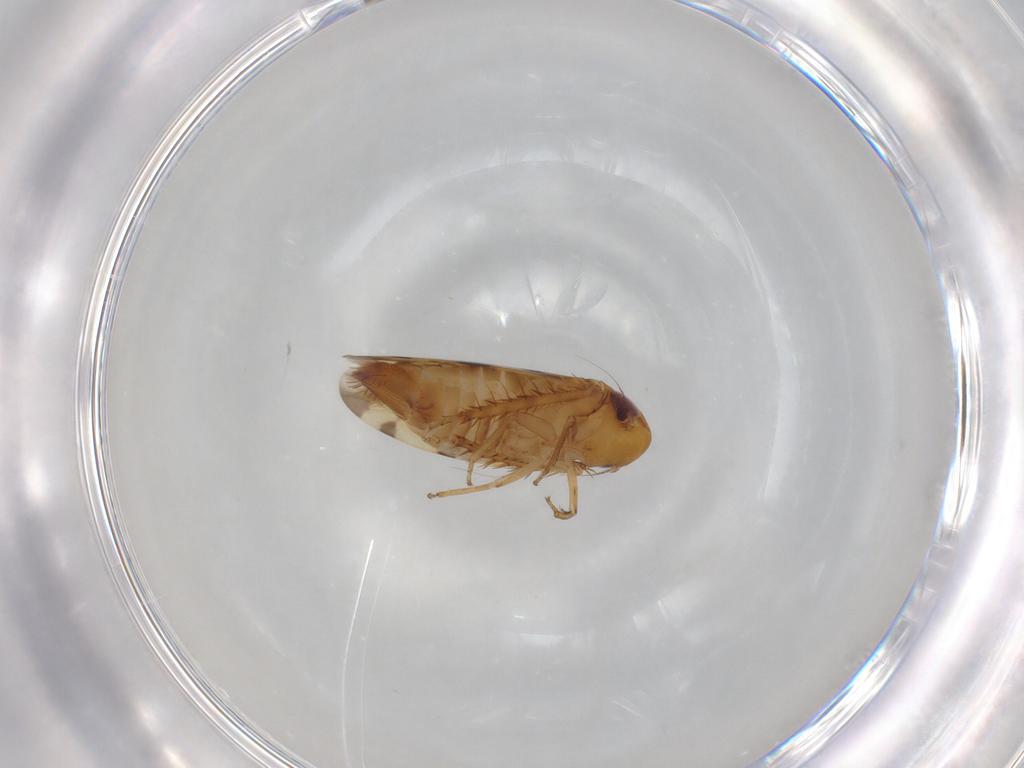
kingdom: Animalia
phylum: Arthropoda
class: Insecta
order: Hemiptera
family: Cicadellidae
